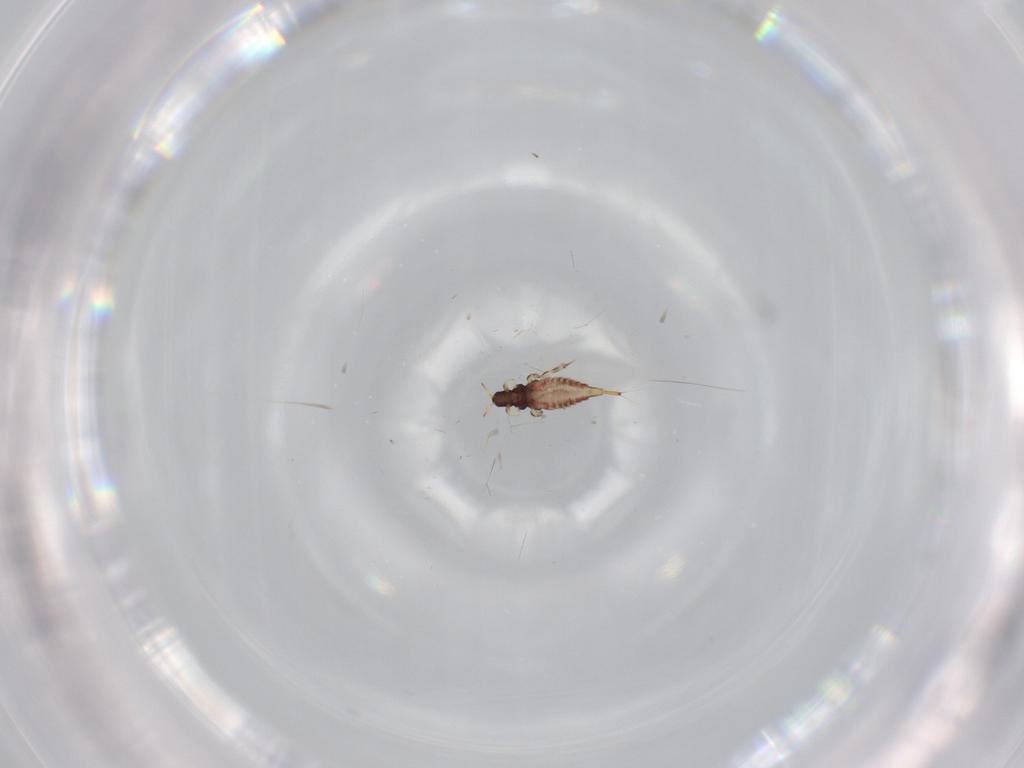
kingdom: Animalia
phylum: Arthropoda
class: Insecta
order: Thysanoptera
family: Phlaeothripidae
